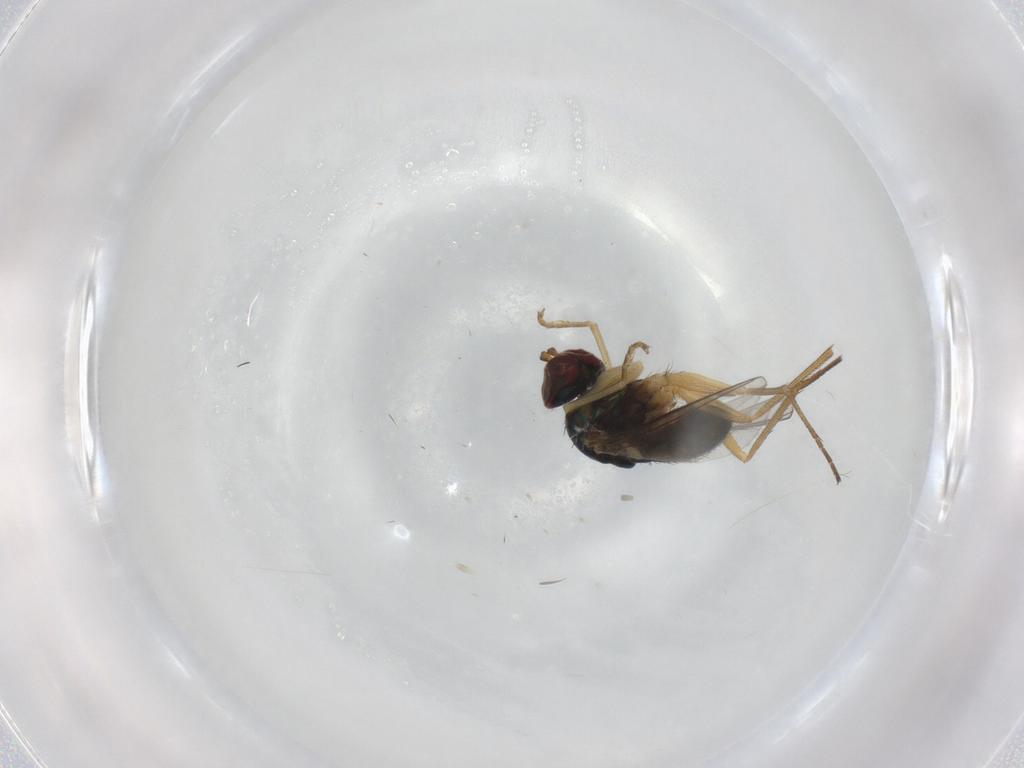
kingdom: Animalia
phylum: Arthropoda
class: Insecta
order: Diptera
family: Dolichopodidae
